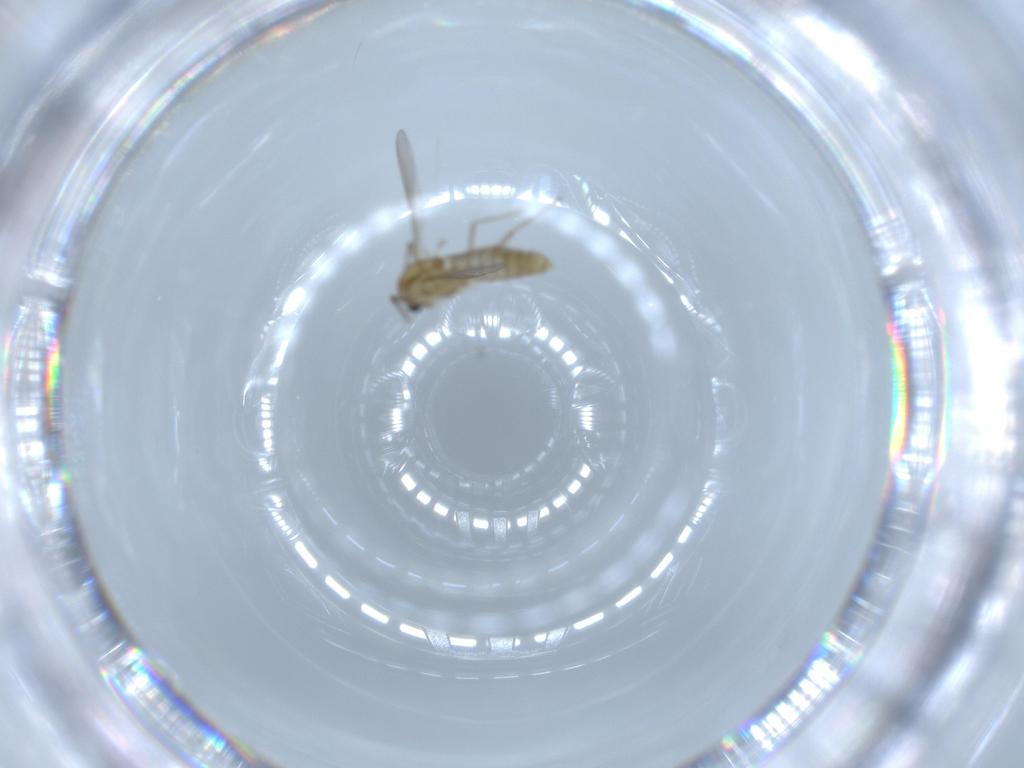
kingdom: Animalia
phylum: Arthropoda
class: Insecta
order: Diptera
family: Sciaridae
